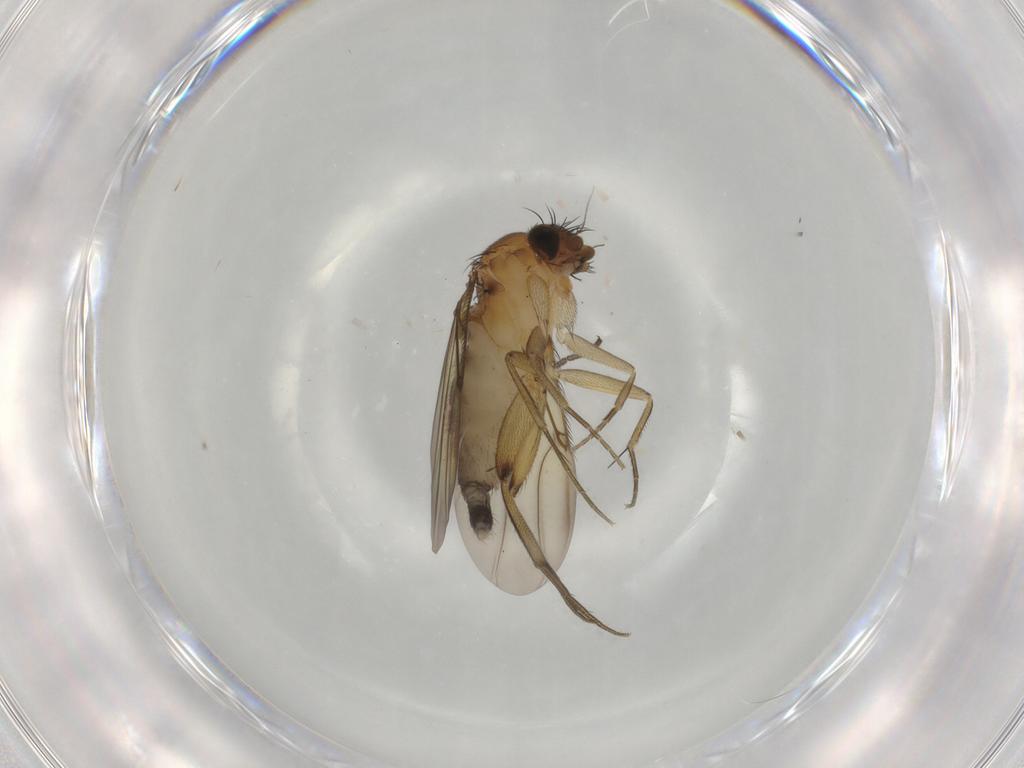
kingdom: Animalia
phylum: Arthropoda
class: Insecta
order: Diptera
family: Phoridae
